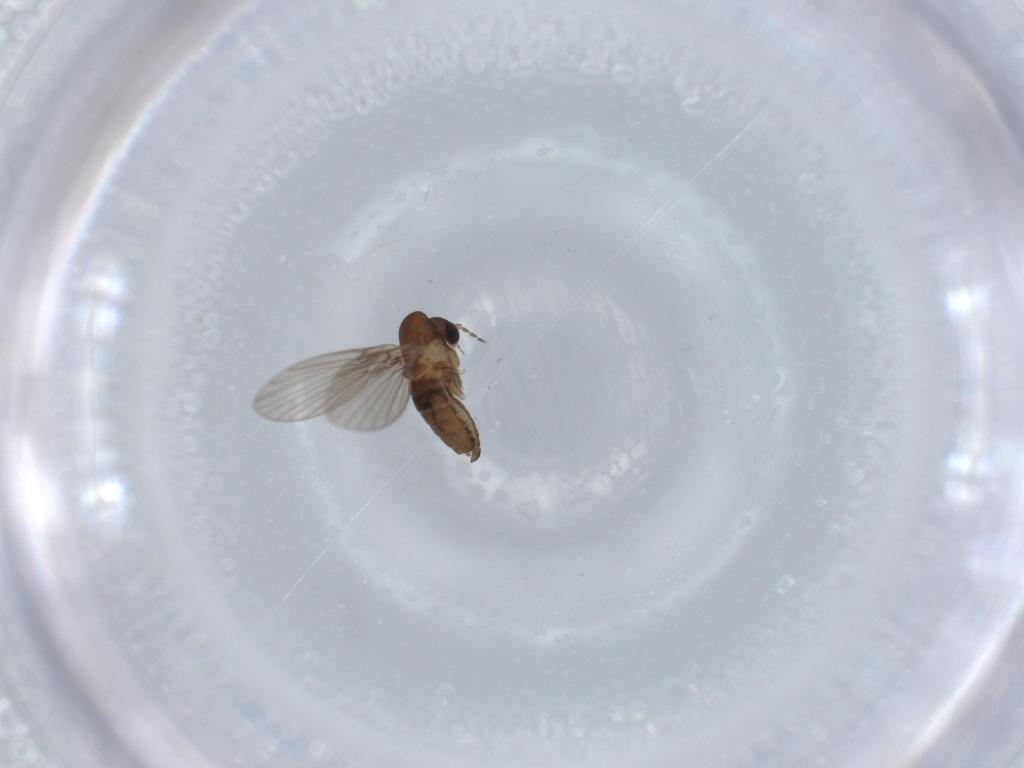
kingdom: Animalia
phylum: Arthropoda
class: Insecta
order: Diptera
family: Psychodidae
